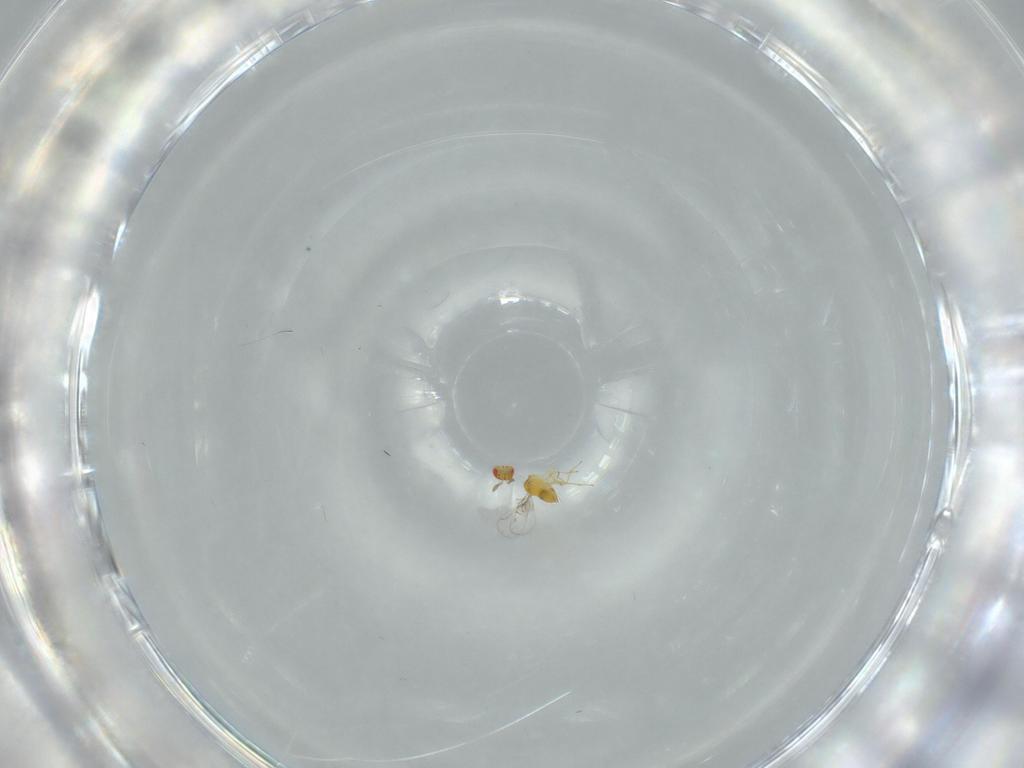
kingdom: Animalia
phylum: Arthropoda
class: Insecta
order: Hymenoptera
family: Trichogrammatidae
